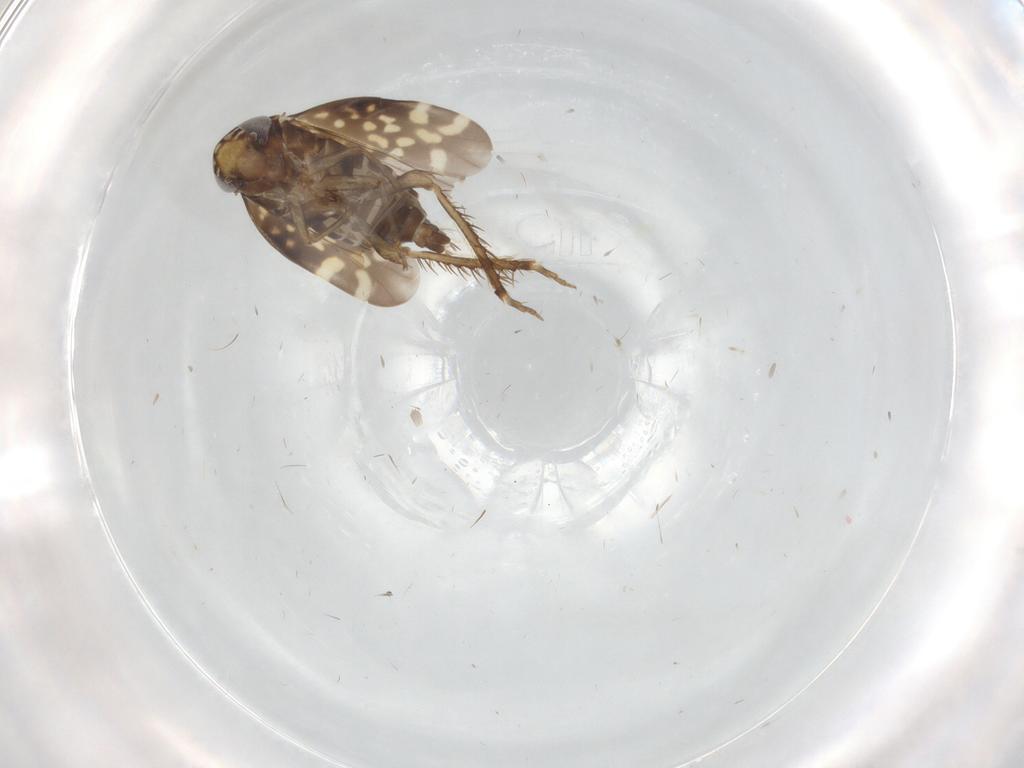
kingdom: Animalia
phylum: Arthropoda
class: Insecta
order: Hemiptera
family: Cicadellidae
